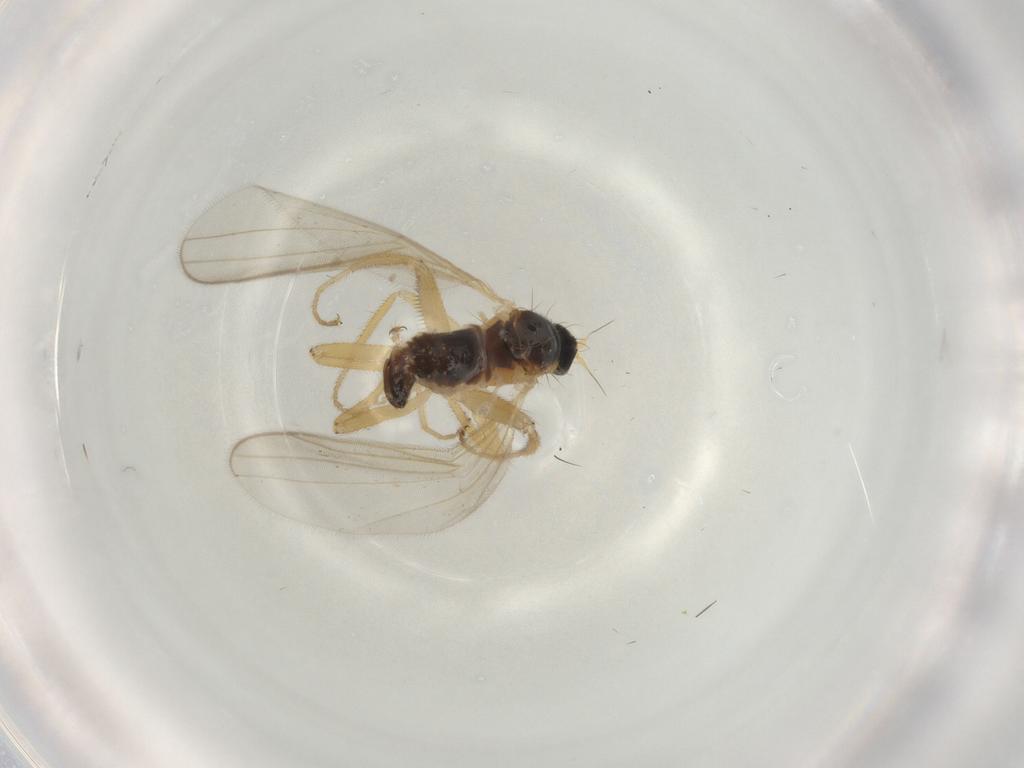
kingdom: Animalia
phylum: Arthropoda
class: Insecta
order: Diptera
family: Hybotidae
